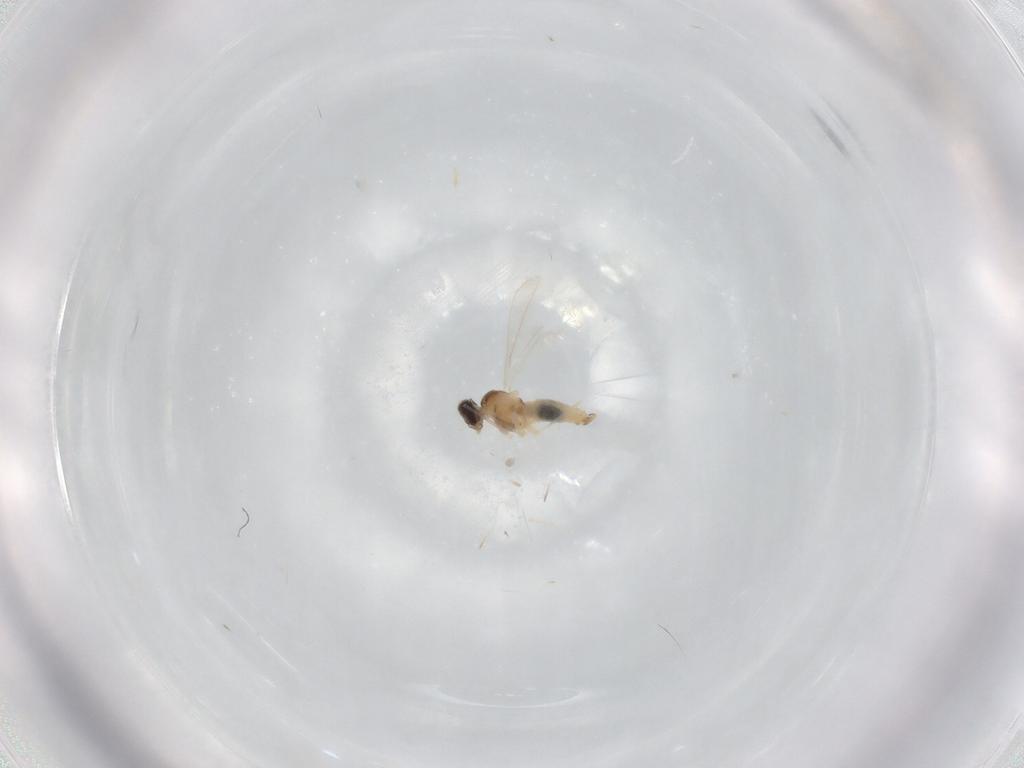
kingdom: Animalia
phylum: Arthropoda
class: Insecta
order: Diptera
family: Cecidomyiidae
